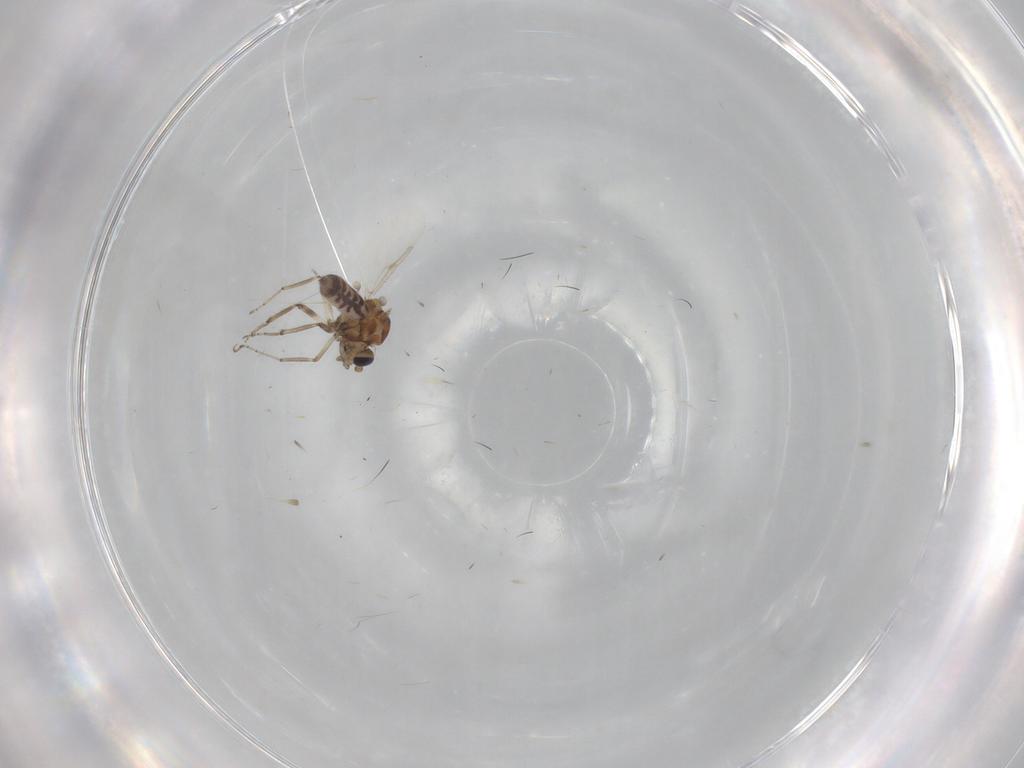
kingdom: Animalia
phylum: Arthropoda
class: Insecta
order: Diptera
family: Ceratopogonidae
